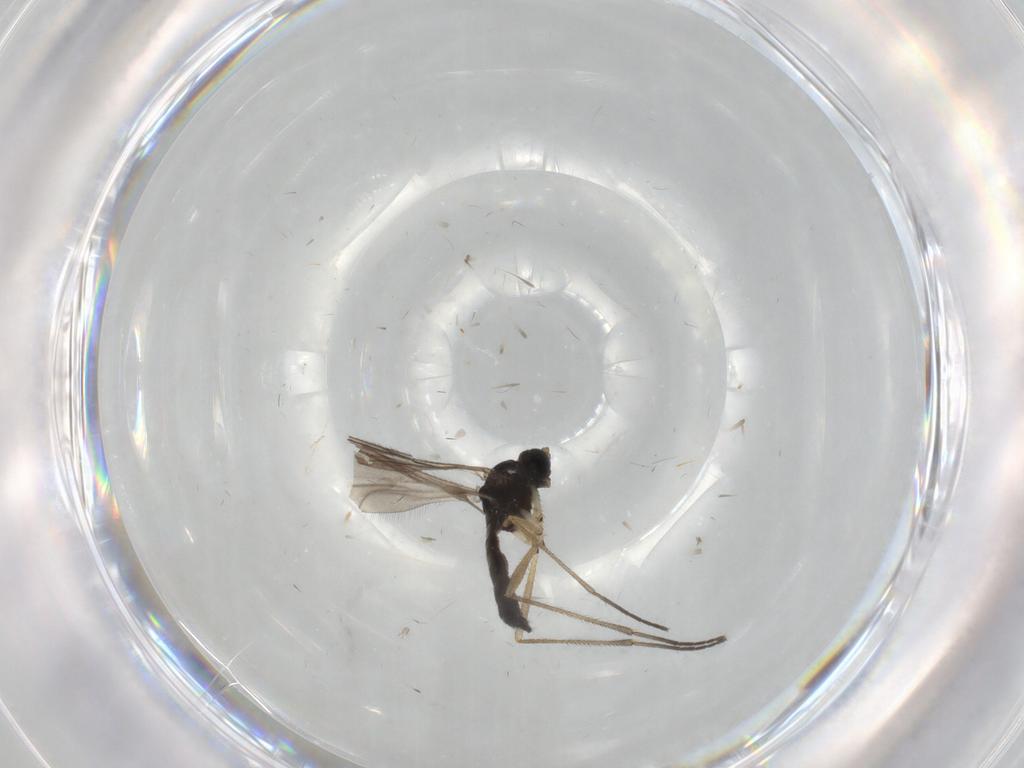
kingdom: Animalia
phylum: Arthropoda
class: Insecta
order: Diptera
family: Sciaridae
